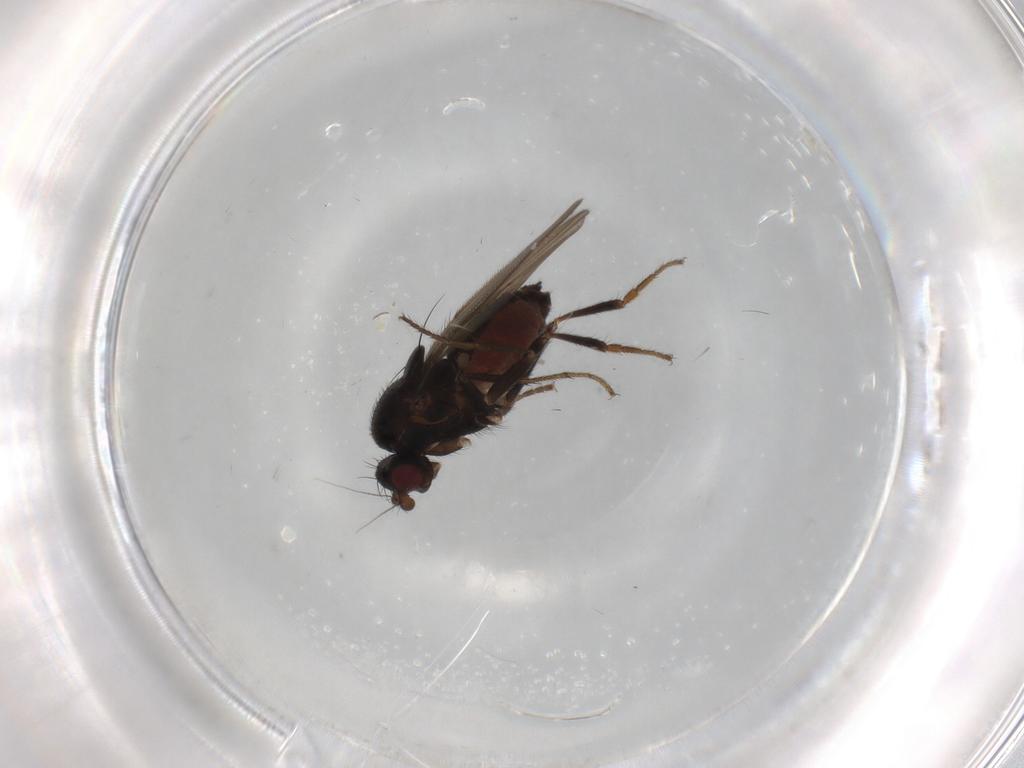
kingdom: Animalia
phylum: Arthropoda
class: Insecta
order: Diptera
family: Sphaeroceridae
